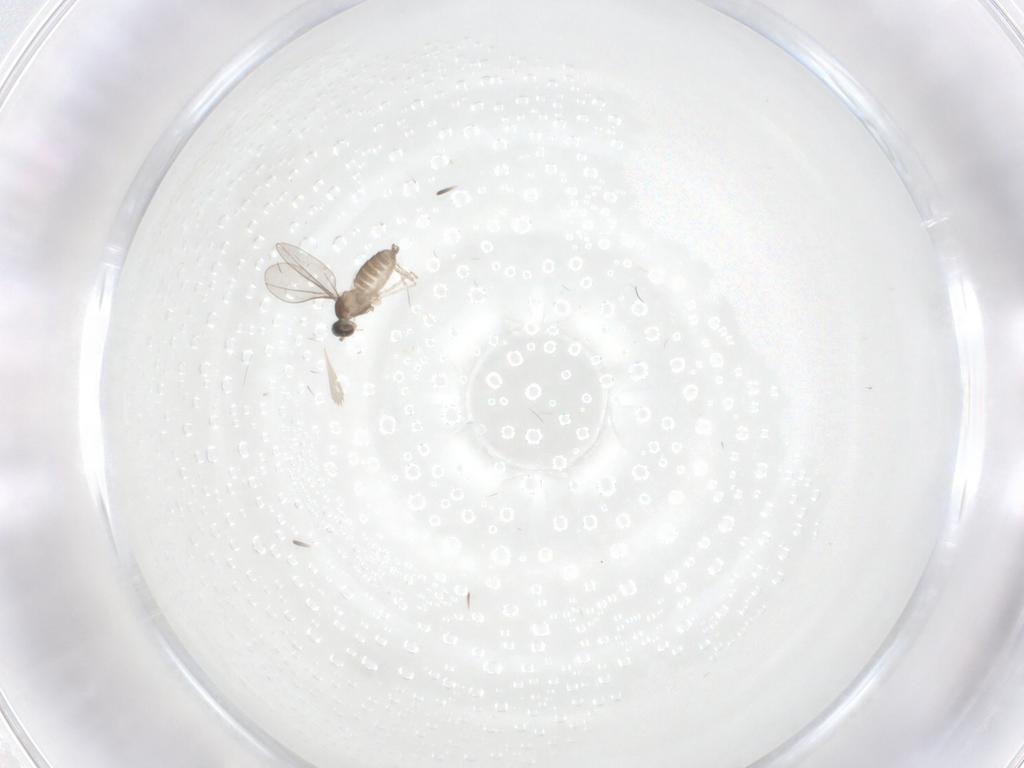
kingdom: Animalia
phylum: Arthropoda
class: Insecta
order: Diptera
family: Cecidomyiidae
